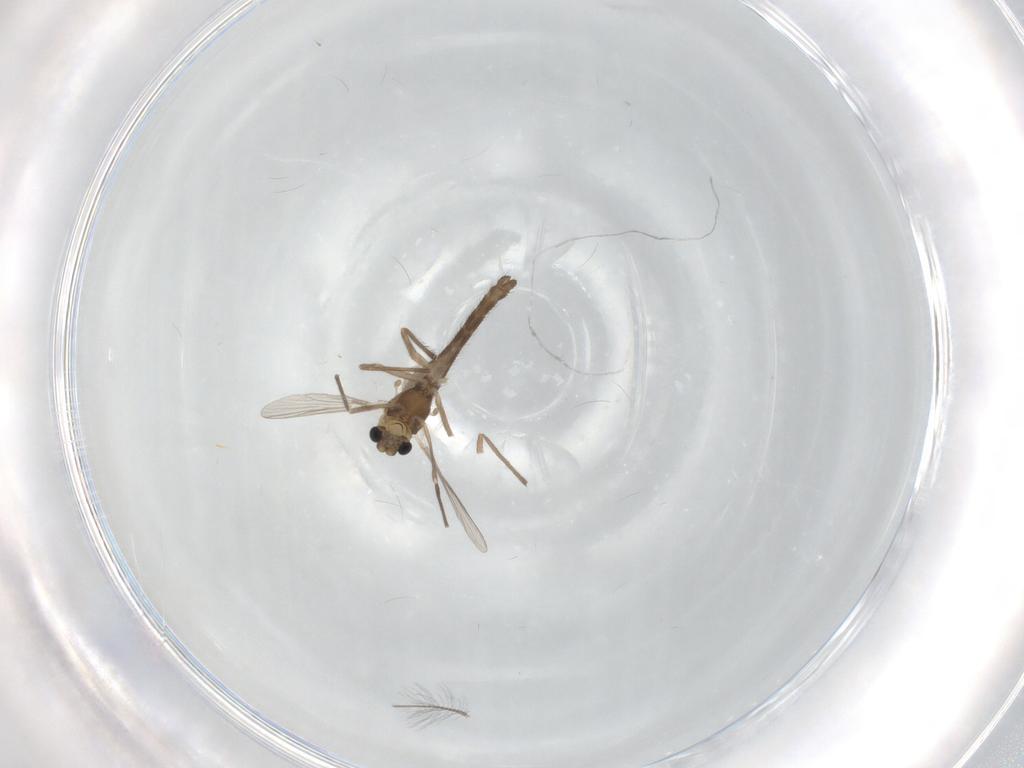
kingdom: Animalia
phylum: Arthropoda
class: Insecta
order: Diptera
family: Chironomidae
